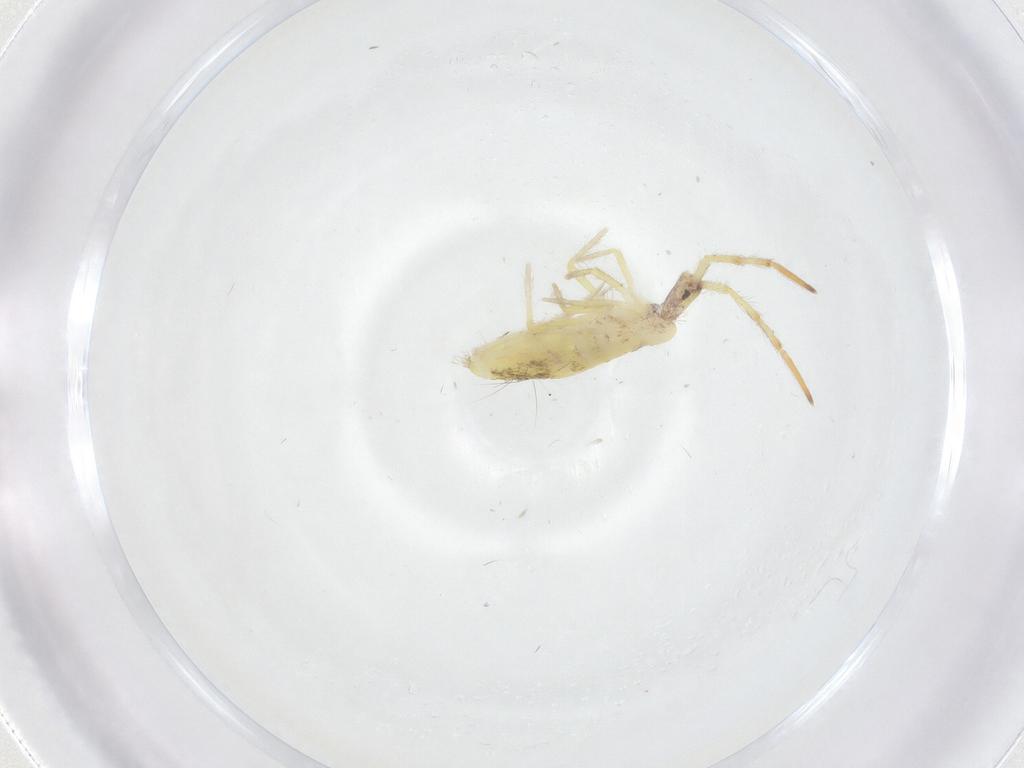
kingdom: Animalia
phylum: Arthropoda
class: Collembola
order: Entomobryomorpha
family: Entomobryidae
